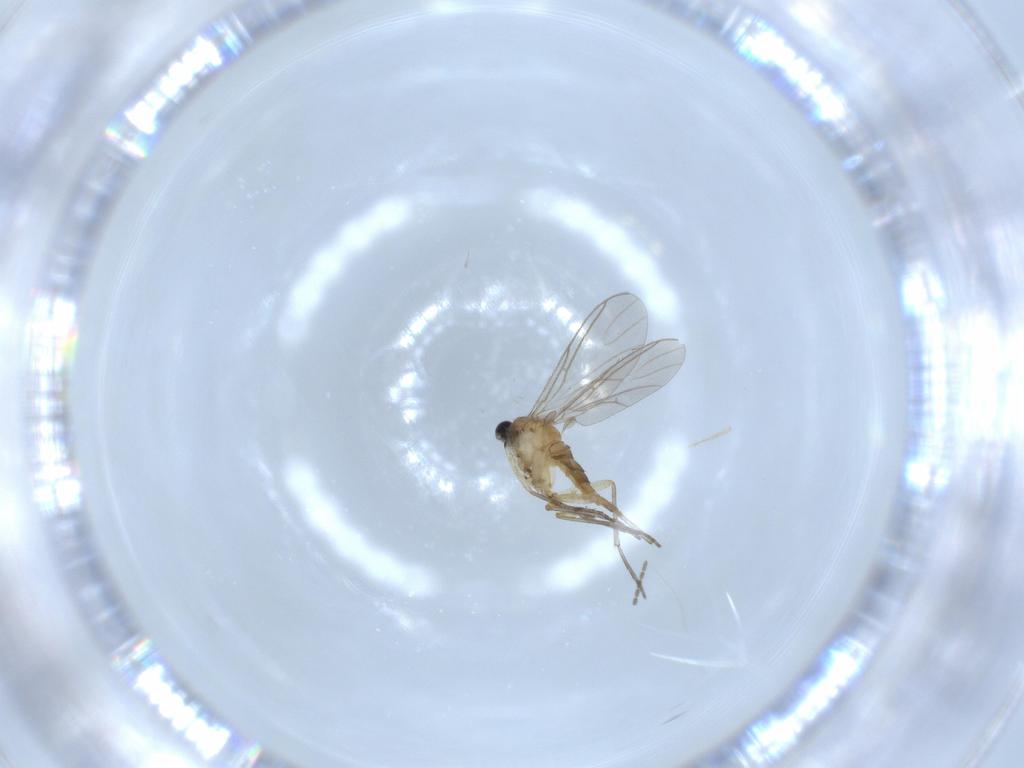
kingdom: Animalia
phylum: Arthropoda
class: Insecta
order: Diptera
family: Sciaridae
